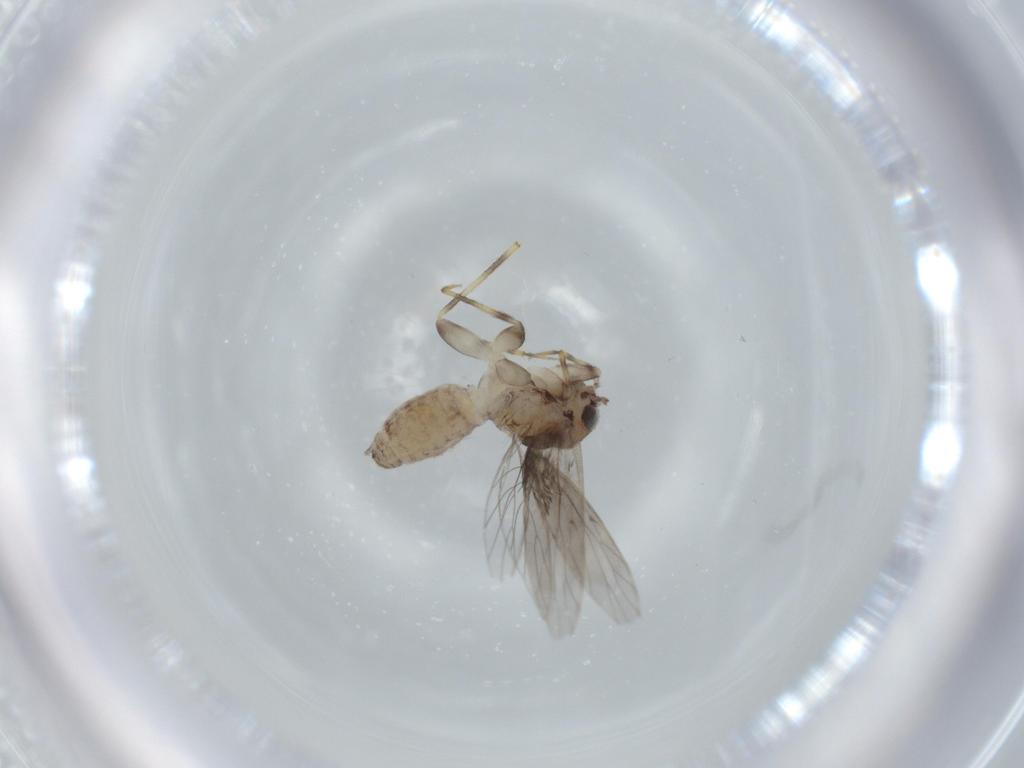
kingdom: Animalia
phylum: Arthropoda
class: Insecta
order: Psocodea
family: Lepidopsocidae
